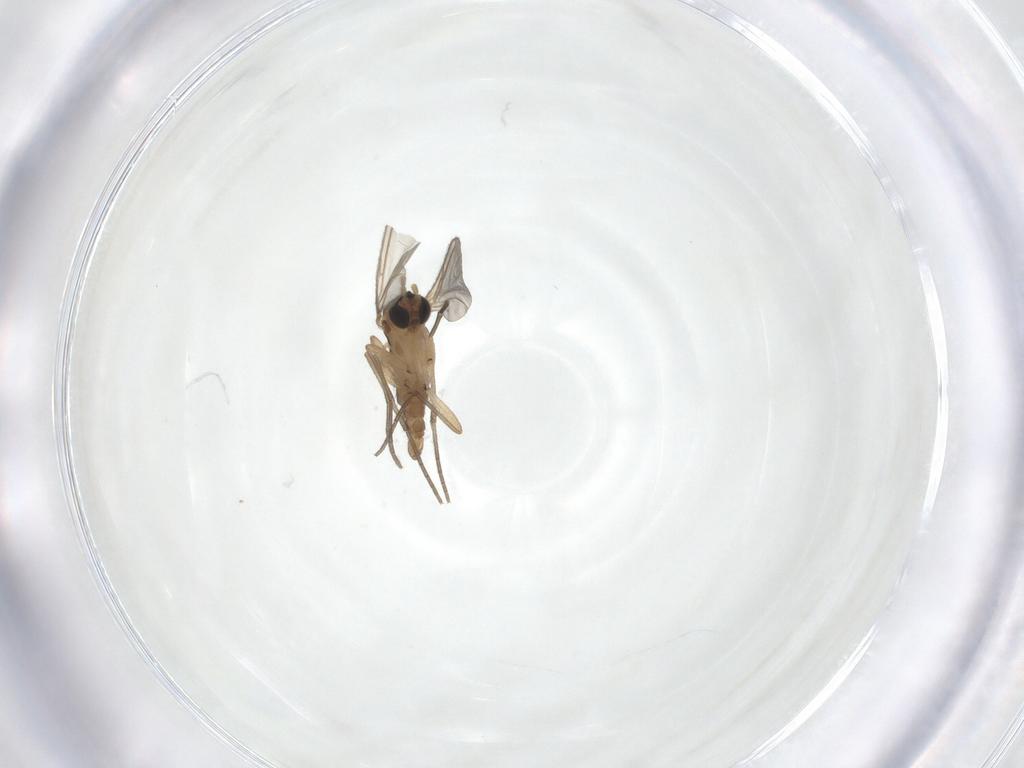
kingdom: Animalia
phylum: Arthropoda
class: Insecta
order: Diptera
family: Sciaridae
